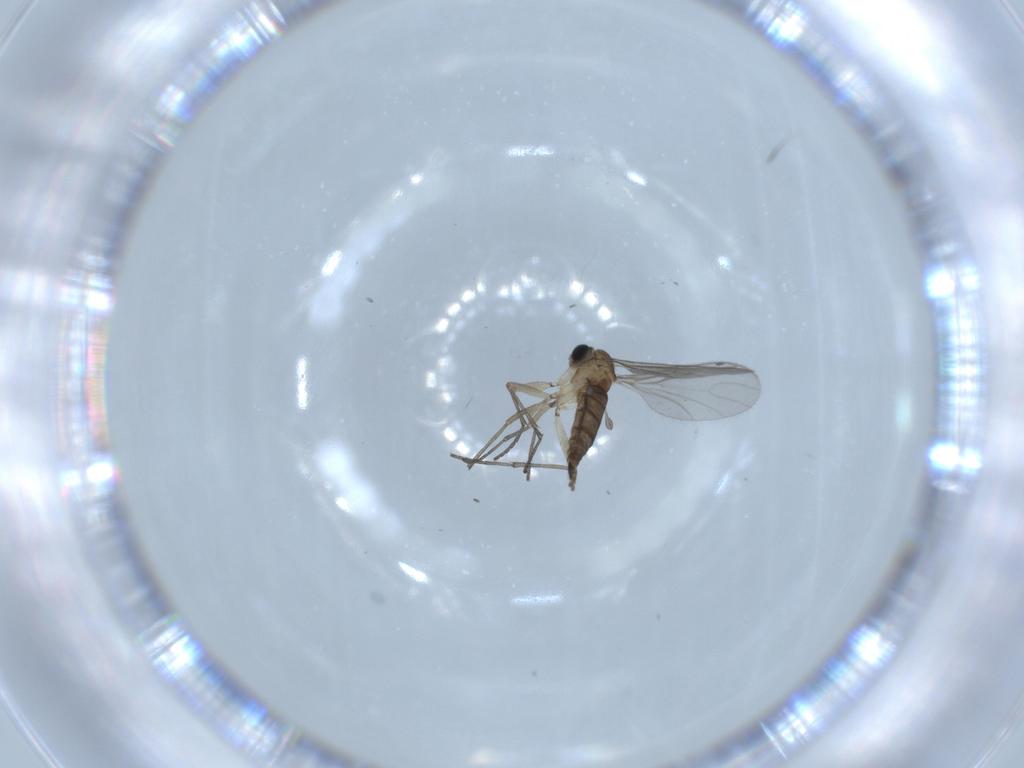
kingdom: Animalia
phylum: Arthropoda
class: Insecta
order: Diptera
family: Sciaridae
